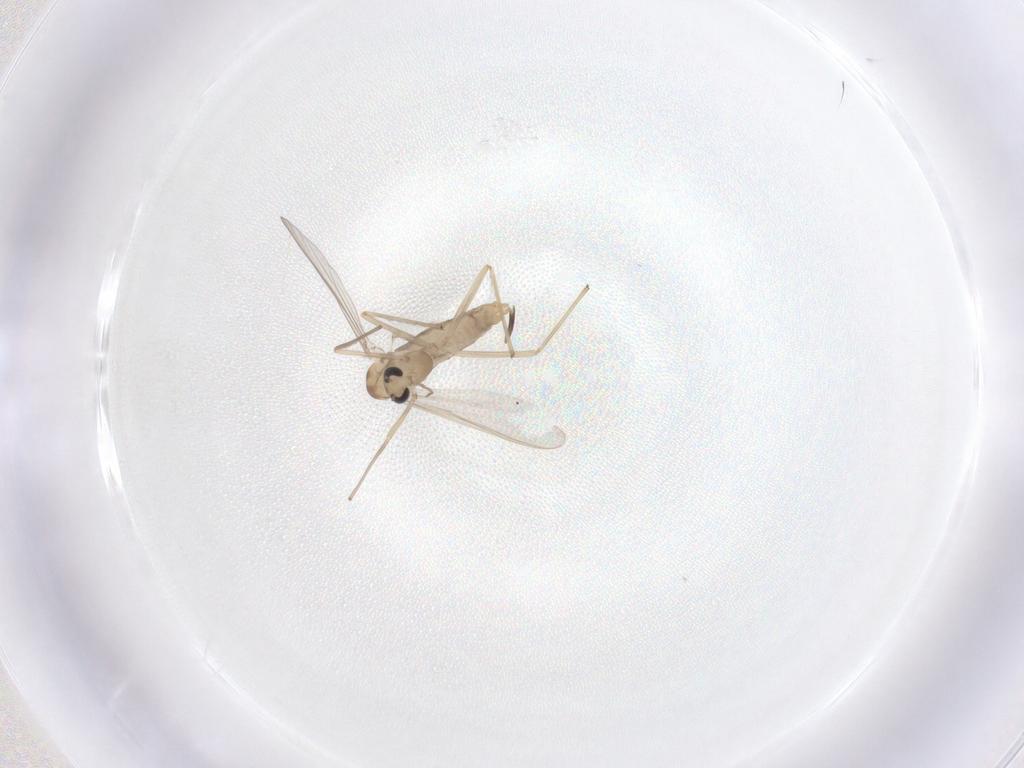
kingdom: Animalia
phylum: Arthropoda
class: Insecta
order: Diptera
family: Chironomidae
